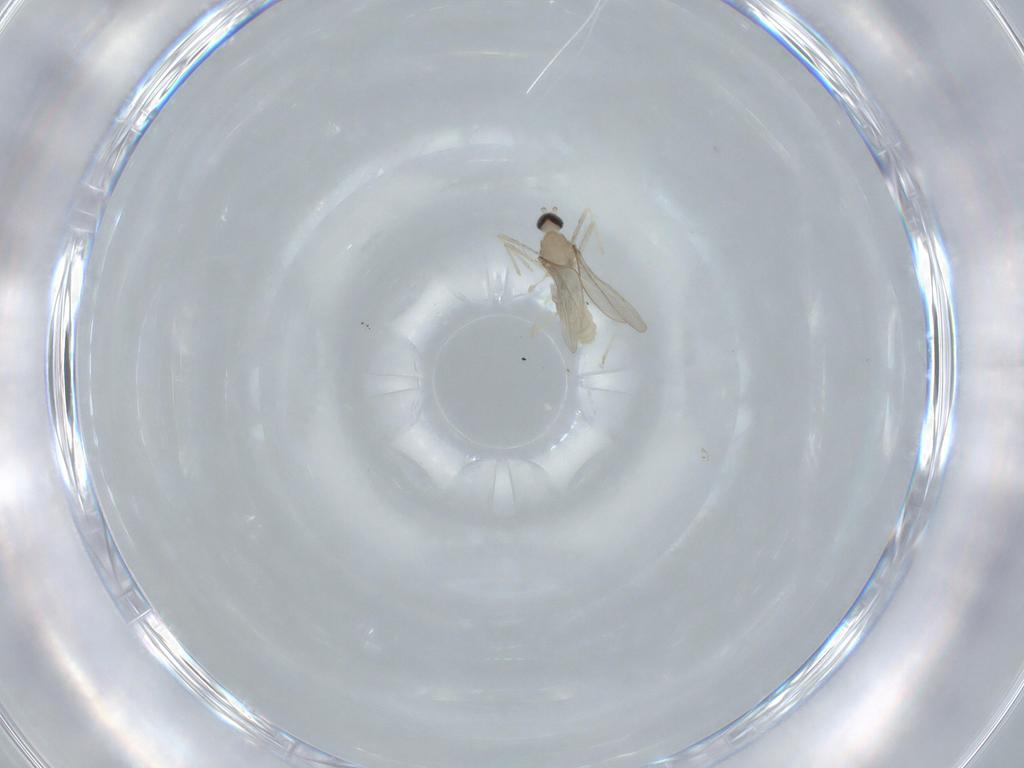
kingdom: Animalia
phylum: Arthropoda
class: Insecta
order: Diptera
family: Cecidomyiidae
